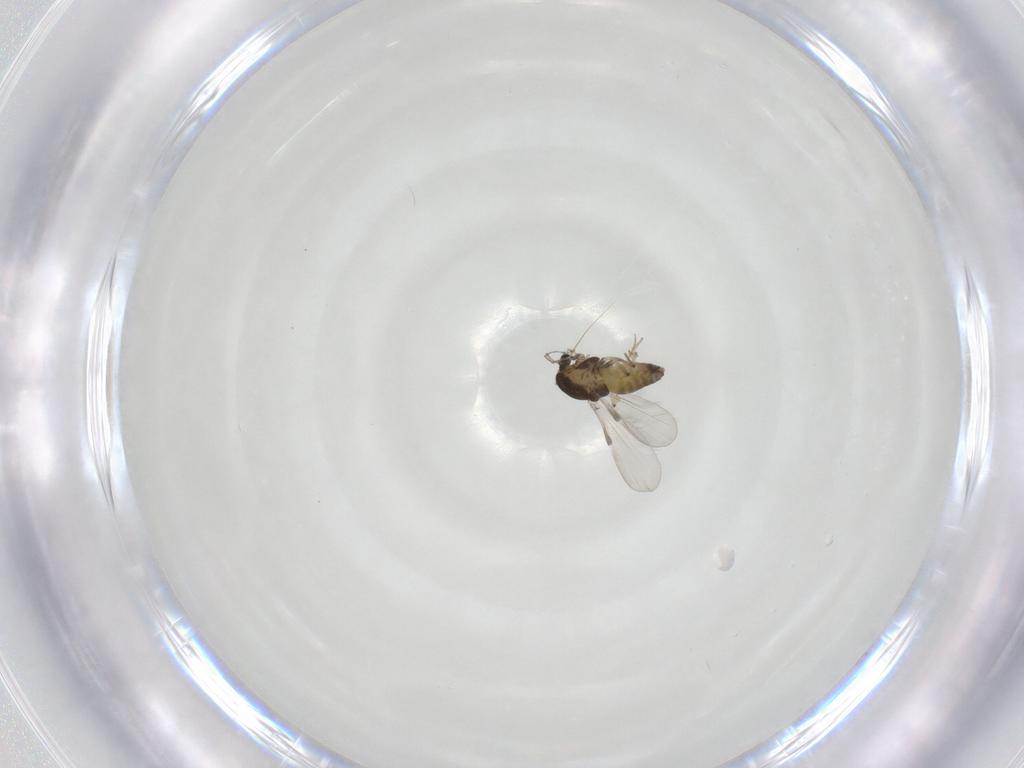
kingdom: Animalia
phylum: Arthropoda
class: Insecta
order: Diptera
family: Chironomidae
